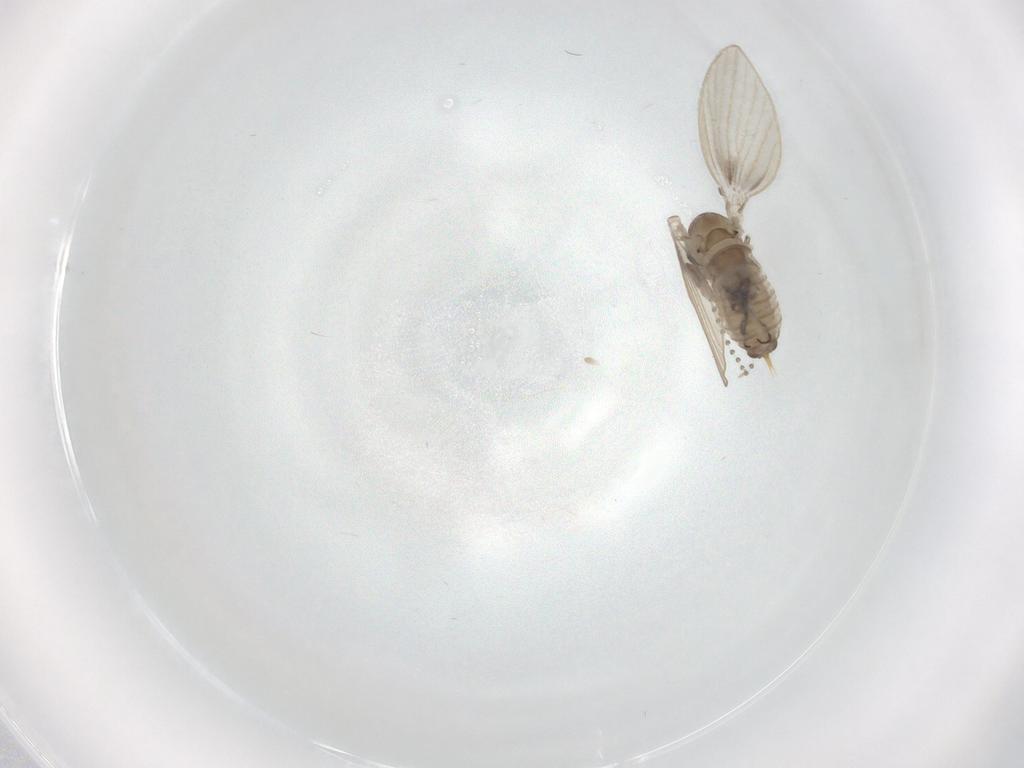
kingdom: Animalia
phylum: Arthropoda
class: Insecta
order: Diptera
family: Psychodidae
